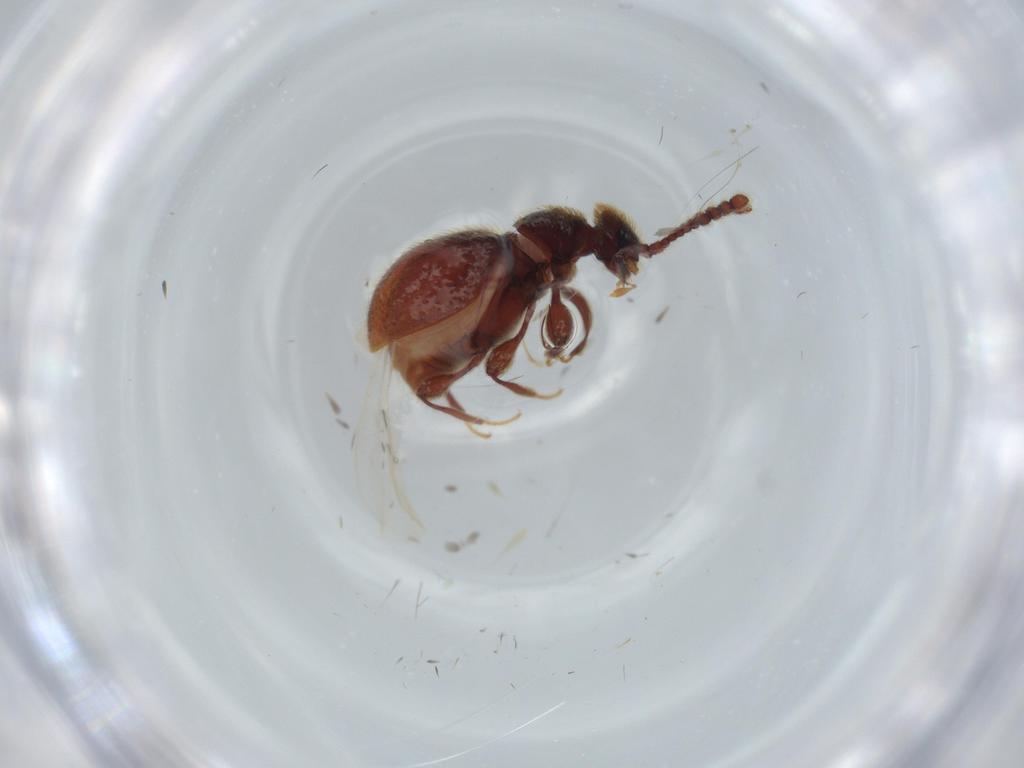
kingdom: Animalia
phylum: Arthropoda
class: Insecta
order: Coleoptera
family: Staphylinidae
